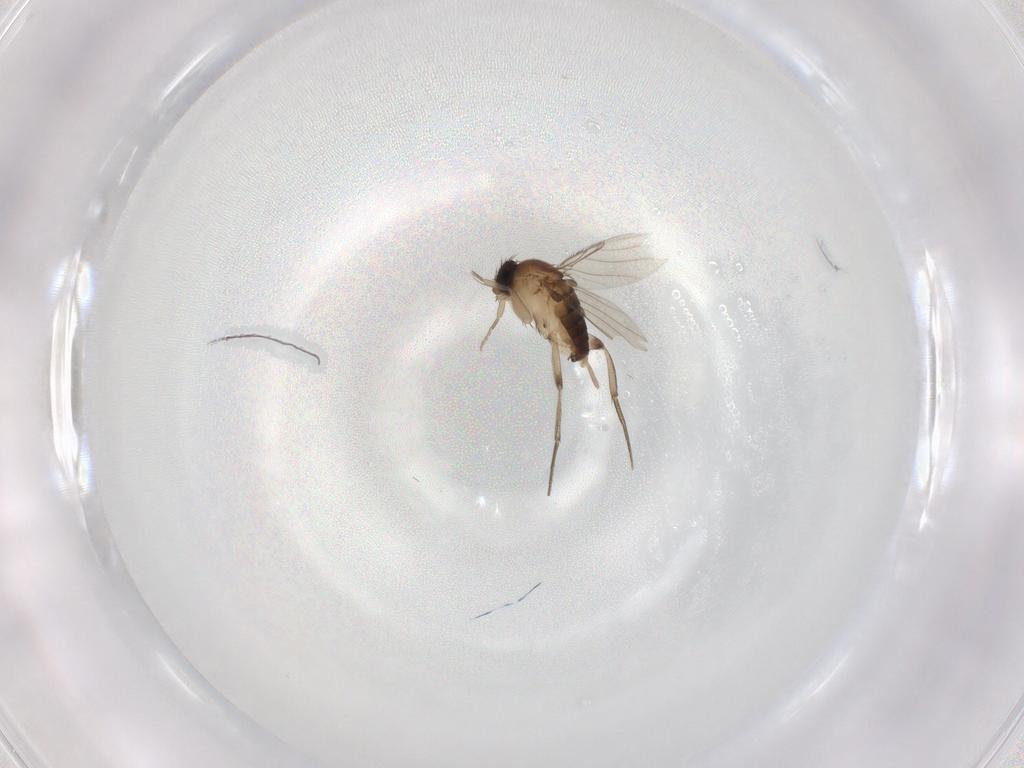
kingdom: Animalia
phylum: Arthropoda
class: Insecta
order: Diptera
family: Phoridae
